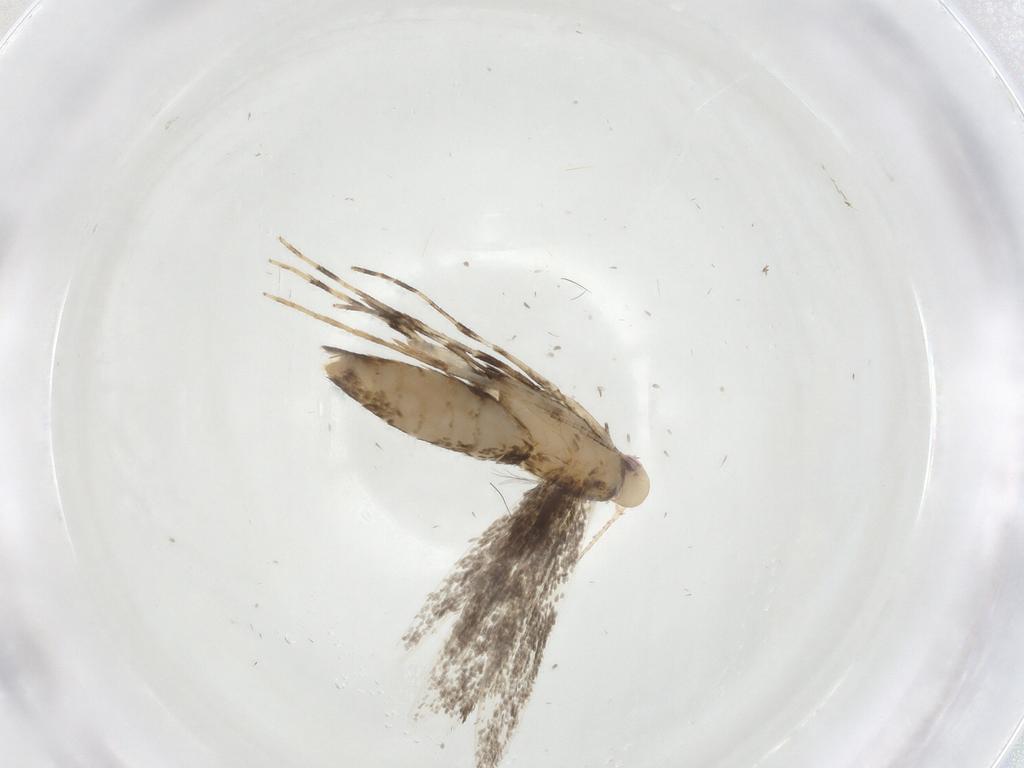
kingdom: Animalia
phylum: Arthropoda
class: Insecta
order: Lepidoptera
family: Gracillariidae
